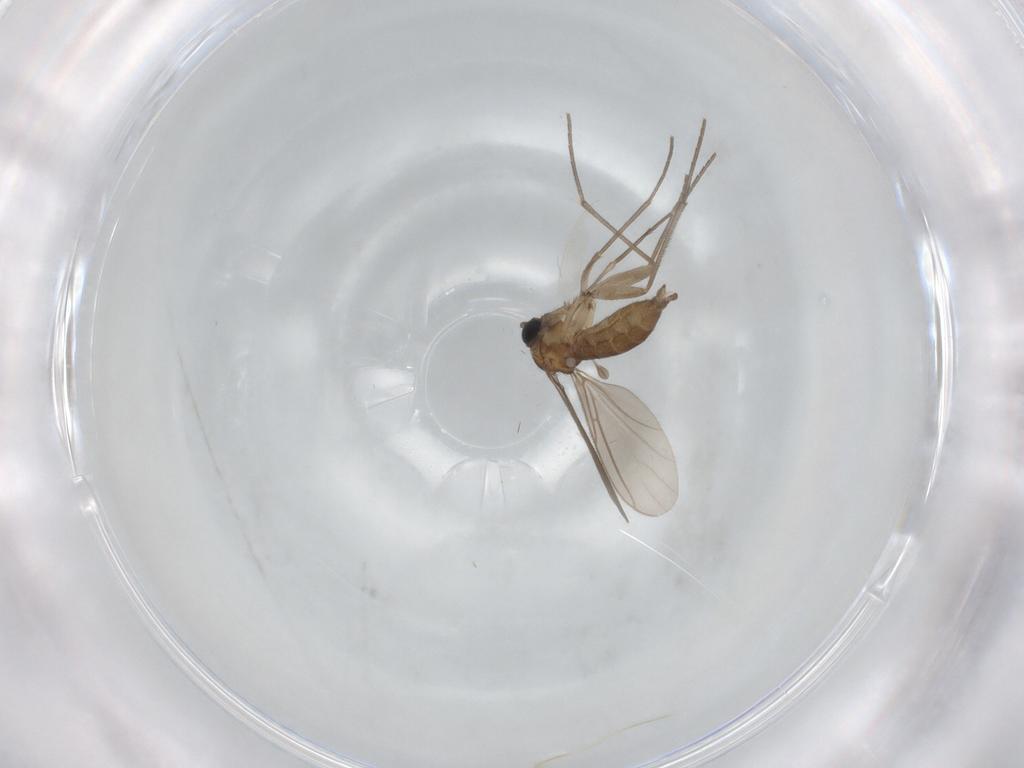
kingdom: Animalia
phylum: Arthropoda
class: Insecta
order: Diptera
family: Sciaridae
